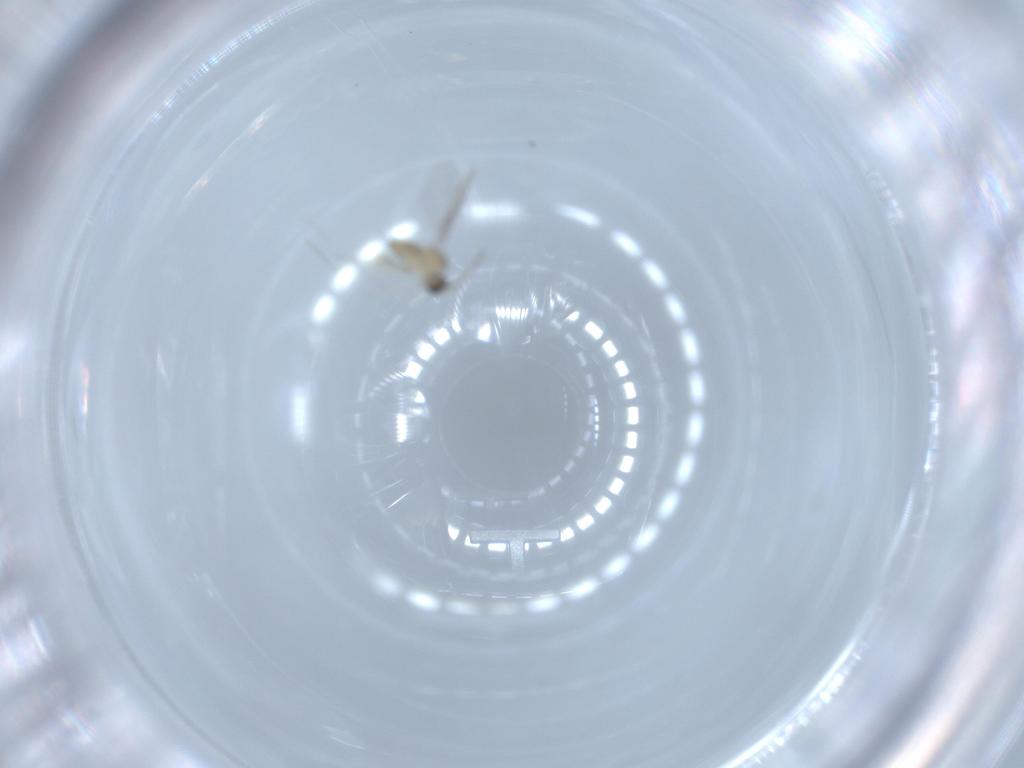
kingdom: Animalia
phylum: Arthropoda
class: Insecta
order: Diptera
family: Cecidomyiidae
